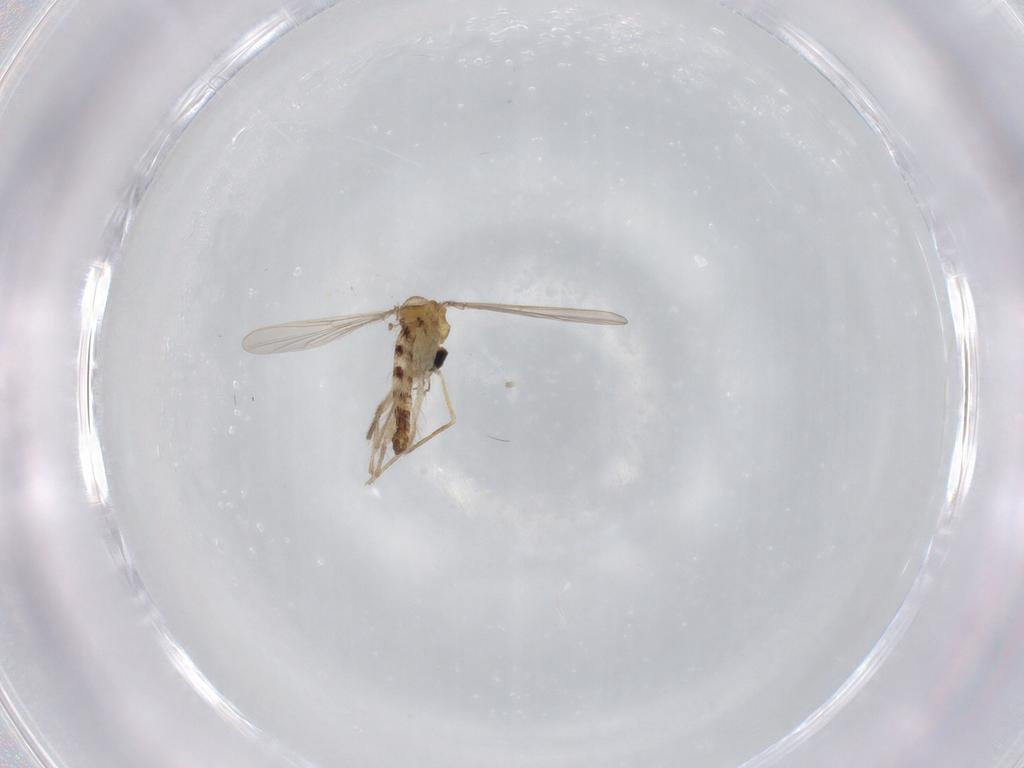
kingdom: Animalia
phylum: Arthropoda
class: Insecta
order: Diptera
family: Chironomidae
